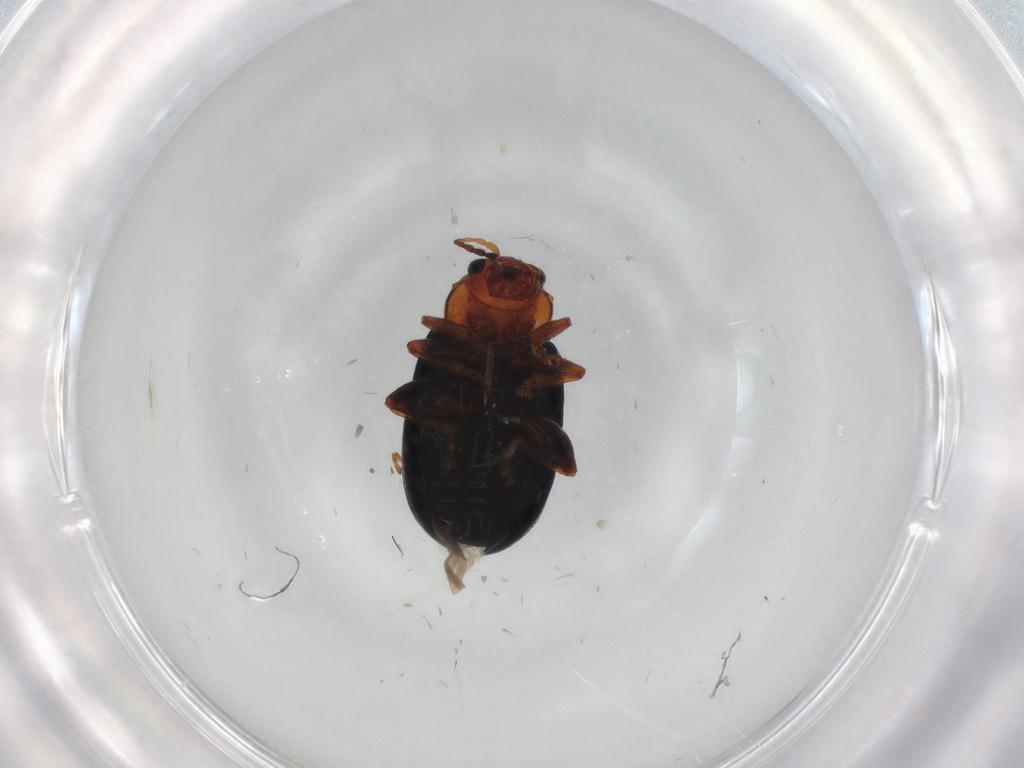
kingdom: Animalia
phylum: Arthropoda
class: Insecta
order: Coleoptera
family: Chrysomelidae
